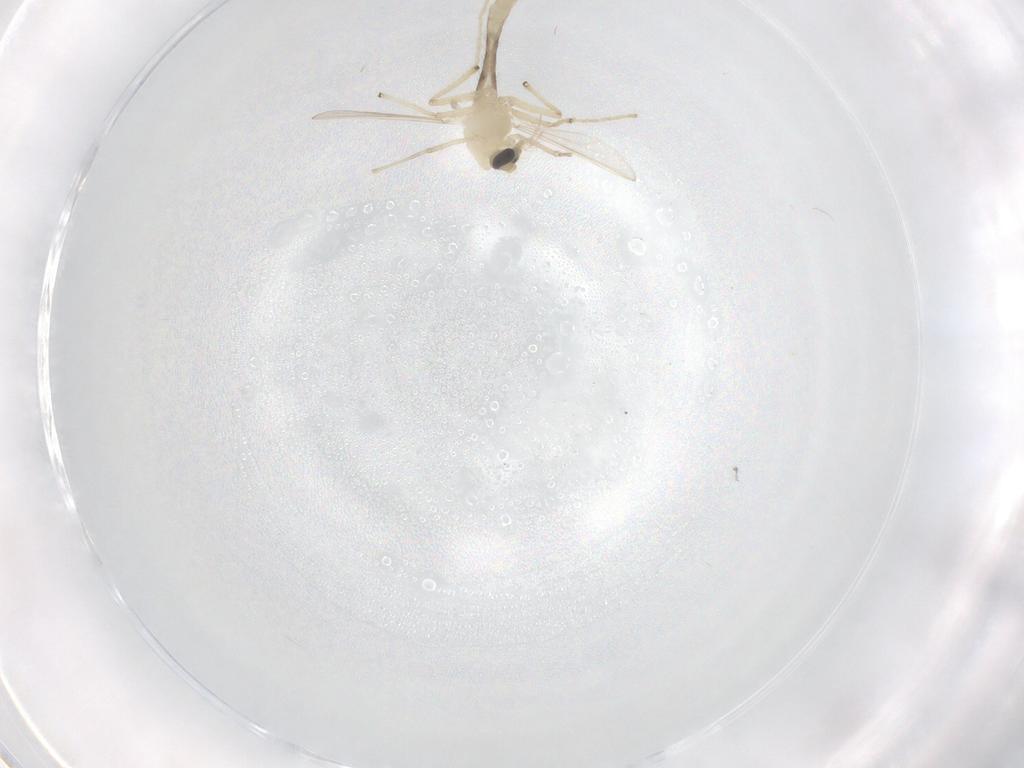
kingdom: Animalia
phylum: Arthropoda
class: Insecta
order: Diptera
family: Chironomidae
